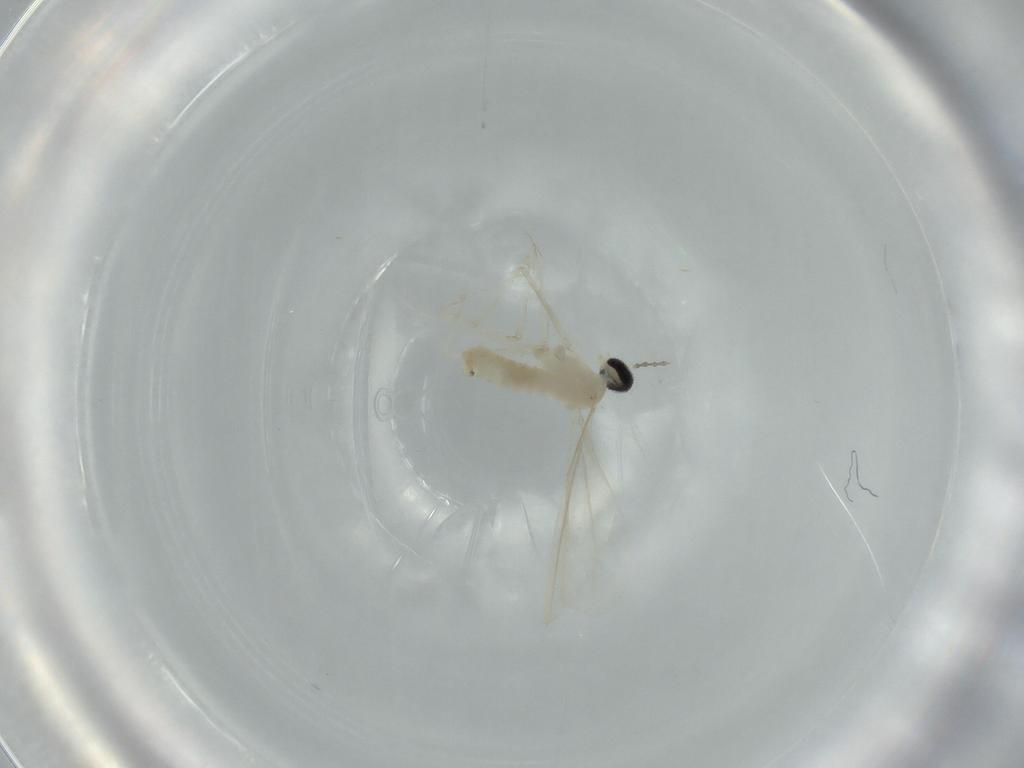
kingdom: Animalia
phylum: Arthropoda
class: Insecta
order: Diptera
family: Cecidomyiidae
